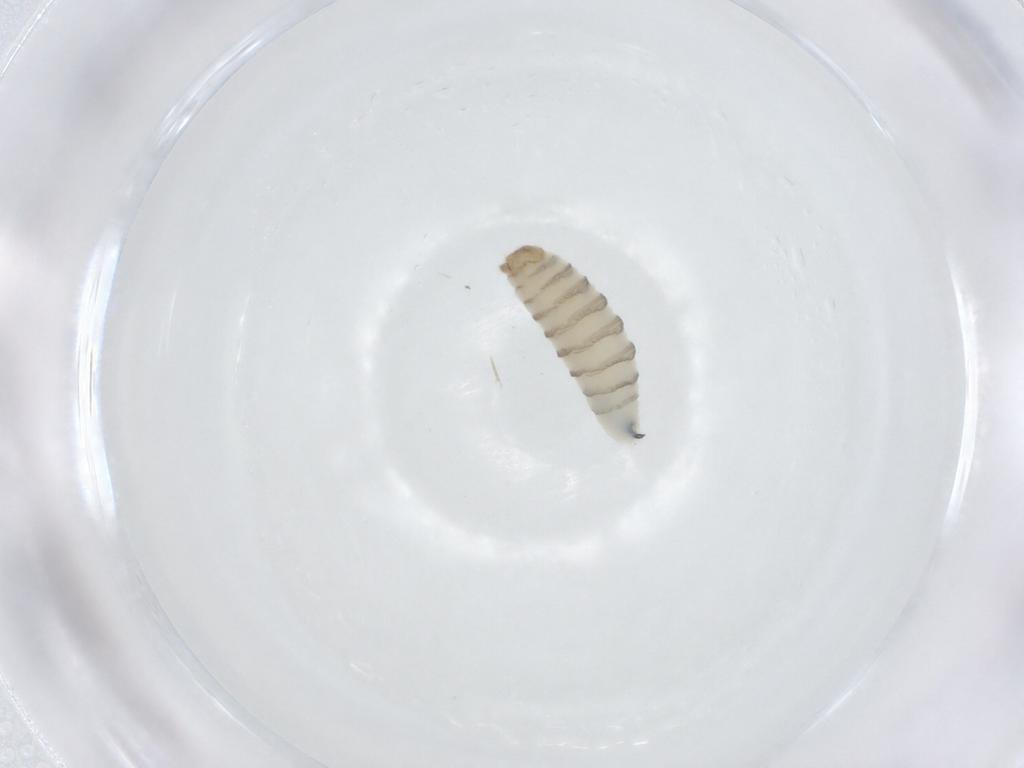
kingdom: Animalia
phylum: Arthropoda
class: Insecta
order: Diptera
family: Sarcophagidae
